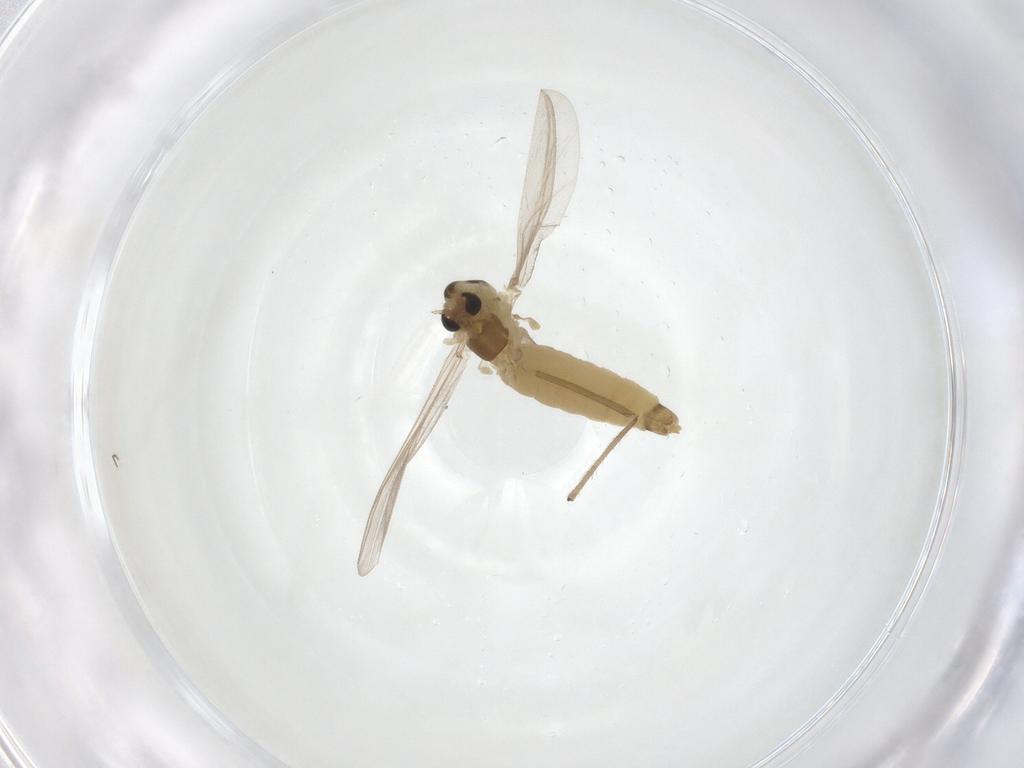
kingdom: Animalia
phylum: Arthropoda
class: Insecta
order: Diptera
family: Chironomidae
